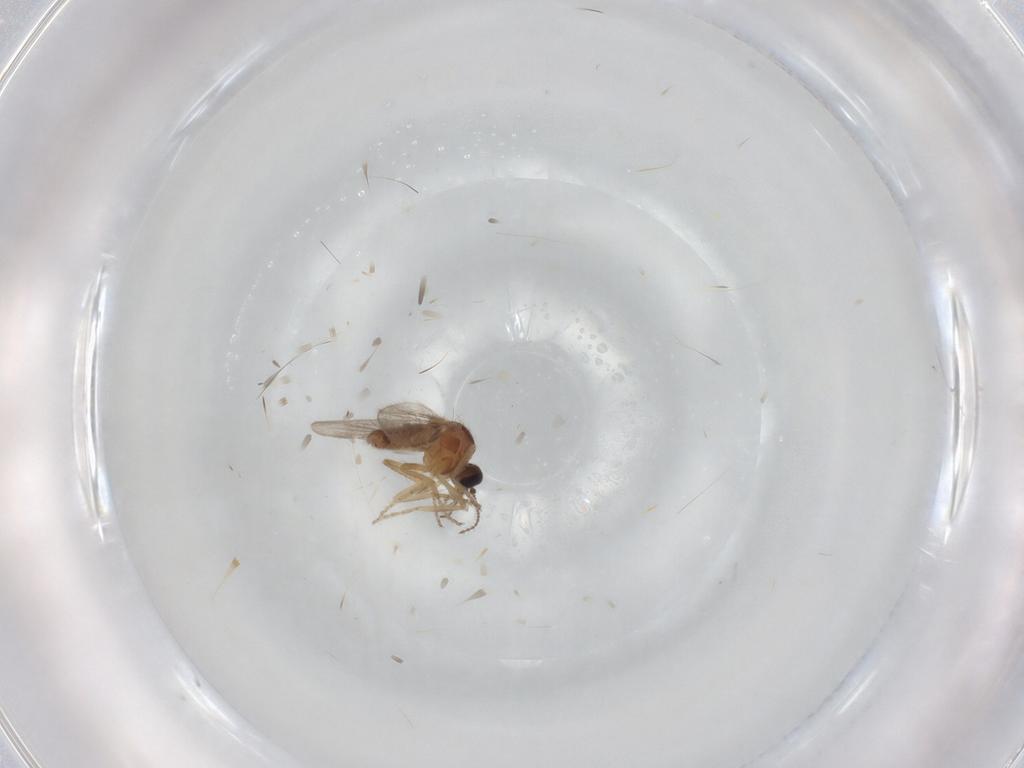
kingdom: Animalia
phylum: Arthropoda
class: Insecta
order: Diptera
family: Ceratopogonidae
